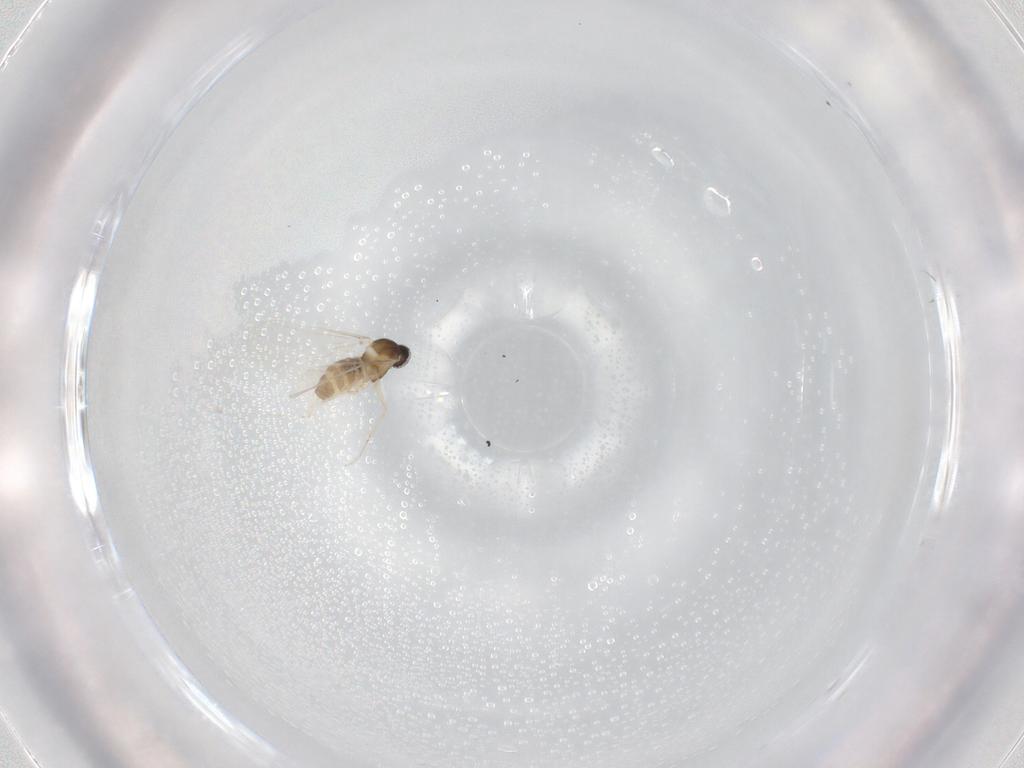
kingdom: Animalia
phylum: Arthropoda
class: Insecta
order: Diptera
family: Cecidomyiidae
